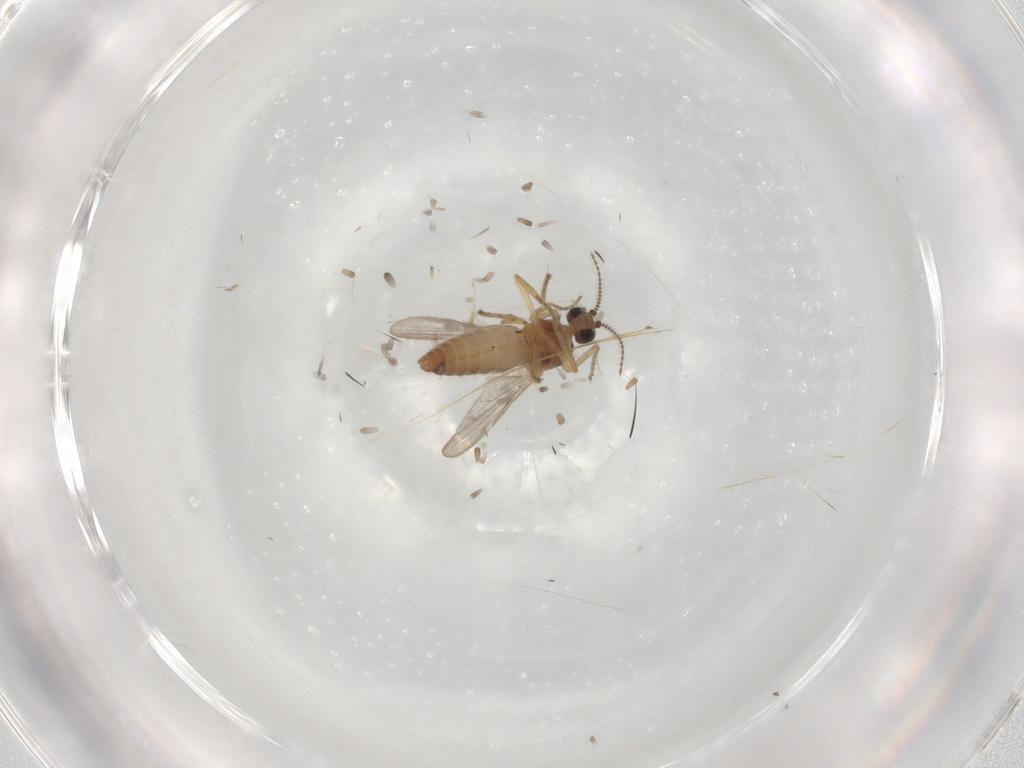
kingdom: Animalia
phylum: Arthropoda
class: Insecta
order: Diptera
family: Ceratopogonidae
